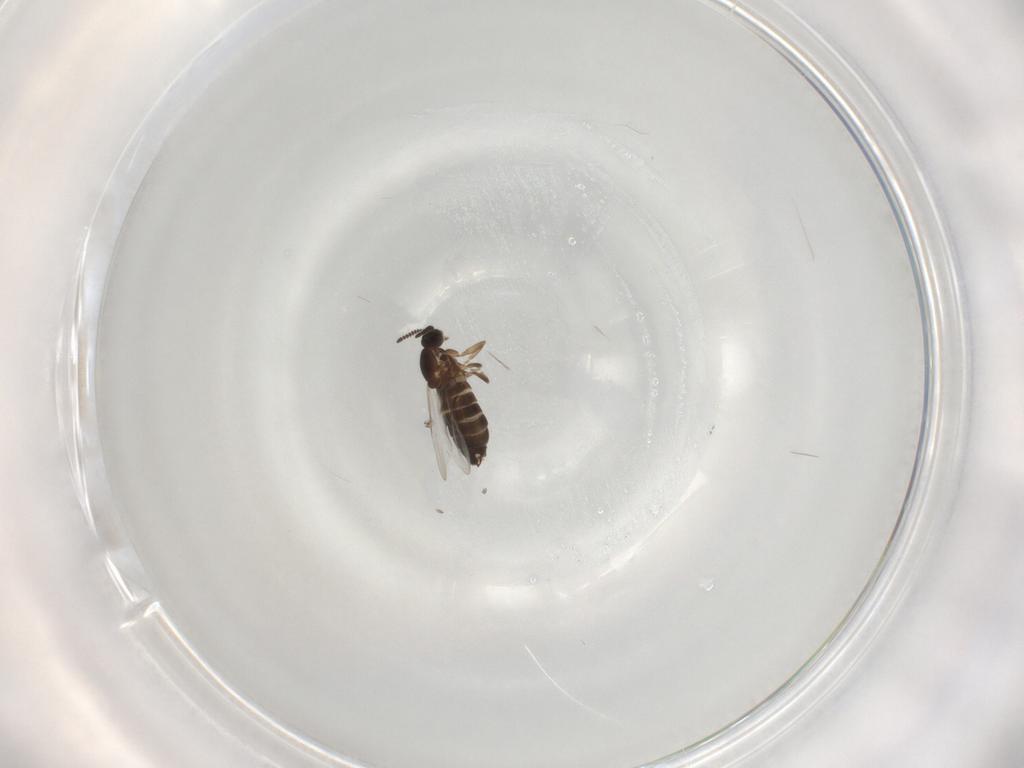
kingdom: Animalia
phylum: Arthropoda
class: Insecta
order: Diptera
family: Scatopsidae
